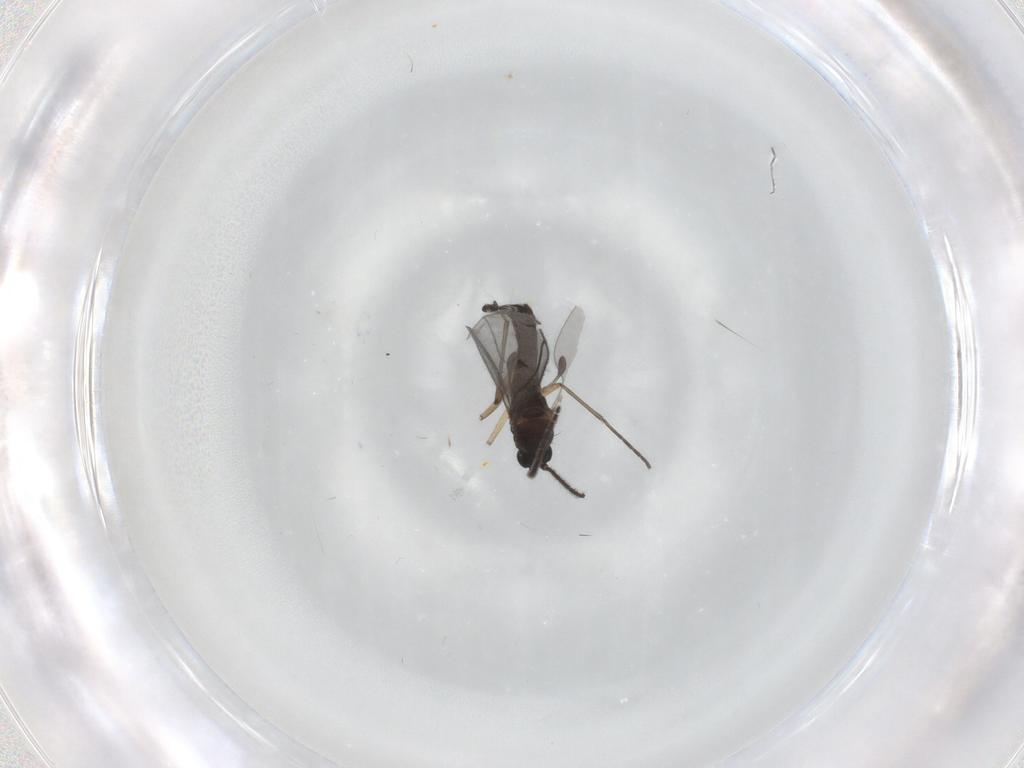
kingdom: Animalia
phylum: Arthropoda
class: Insecta
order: Diptera
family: Sciaridae
